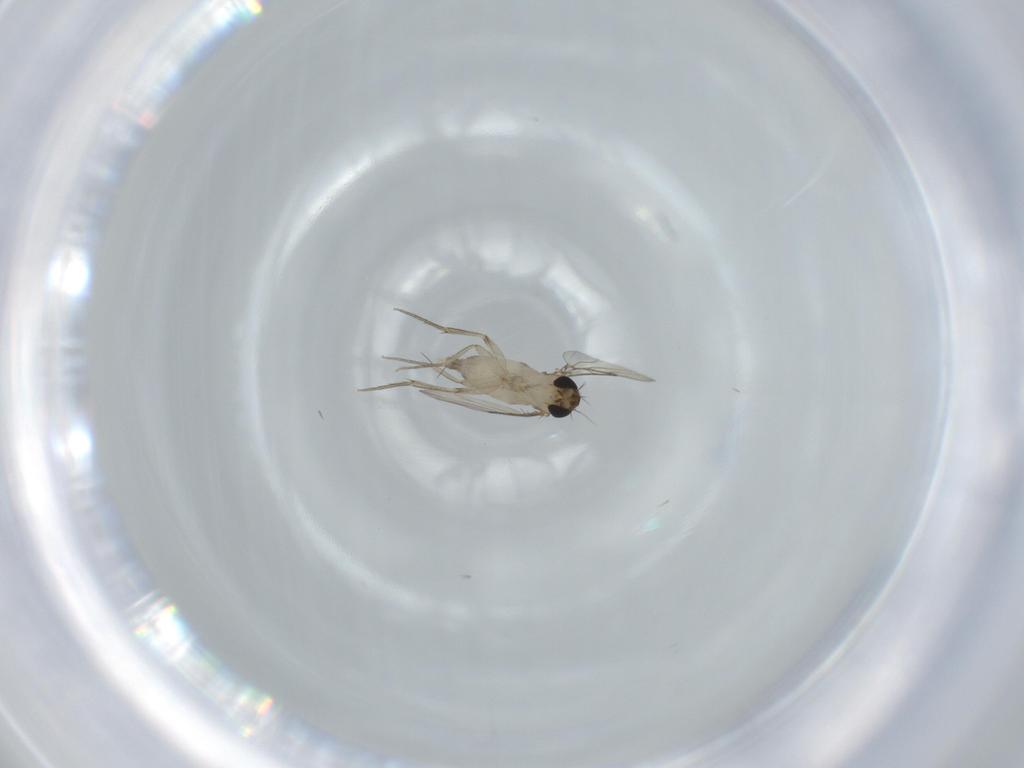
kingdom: Animalia
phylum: Arthropoda
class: Insecta
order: Diptera
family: Phoridae
